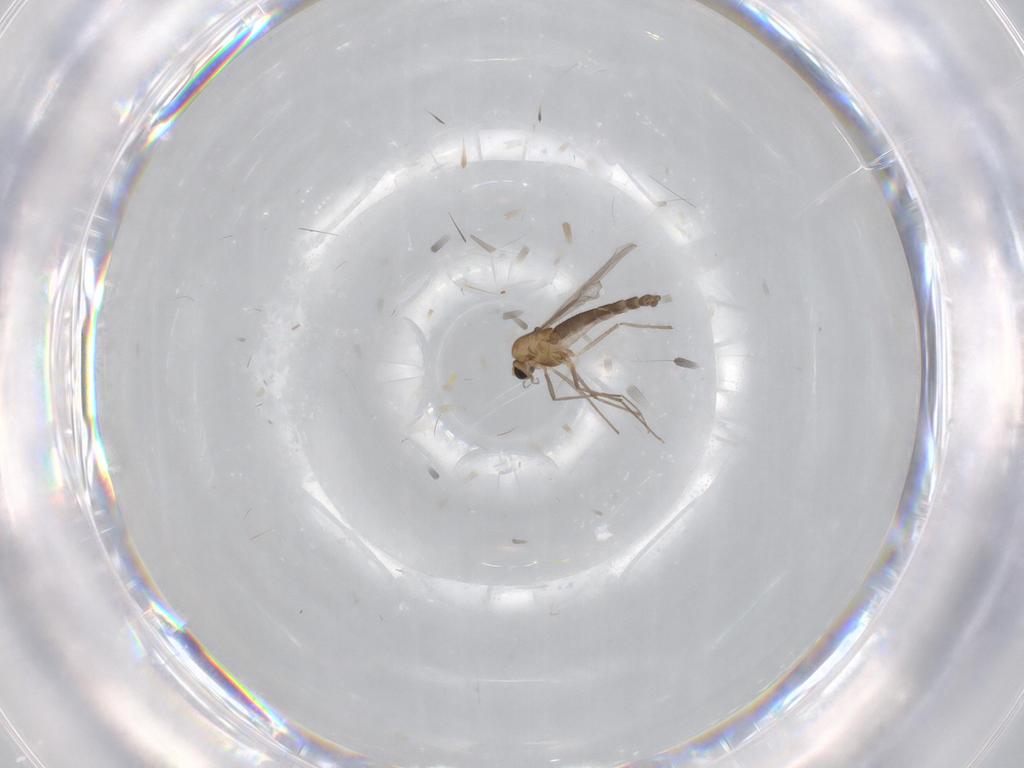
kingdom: Animalia
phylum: Arthropoda
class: Insecta
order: Diptera
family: Chironomidae
